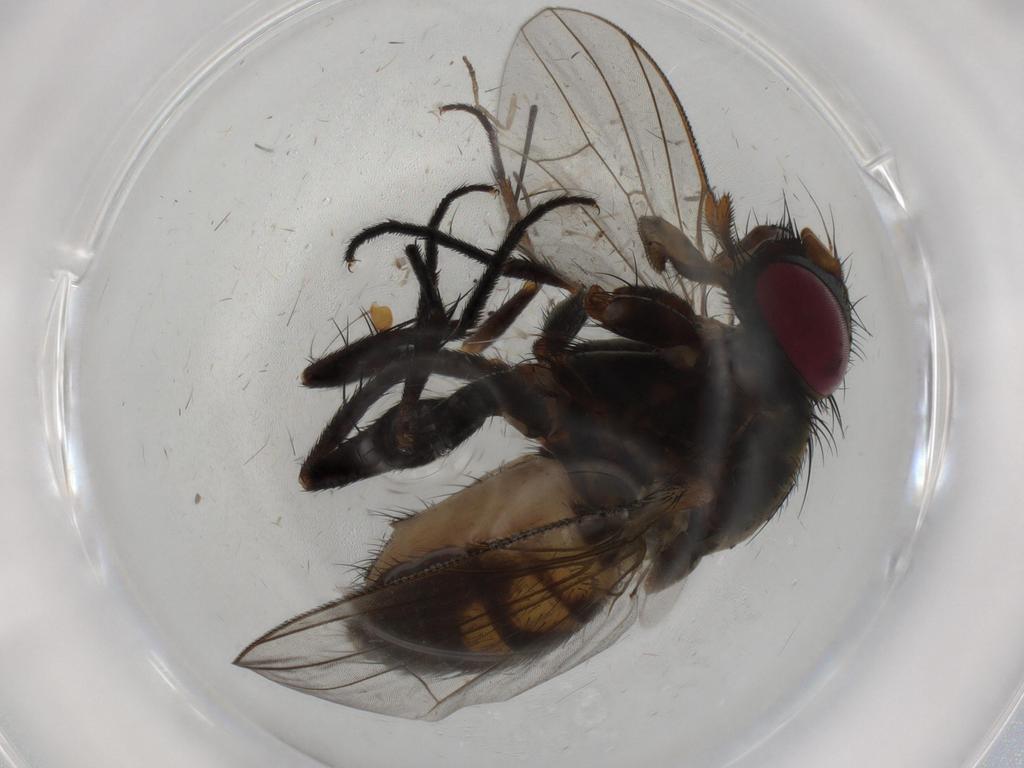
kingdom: Animalia
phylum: Arthropoda
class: Insecta
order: Diptera
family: Fannia
